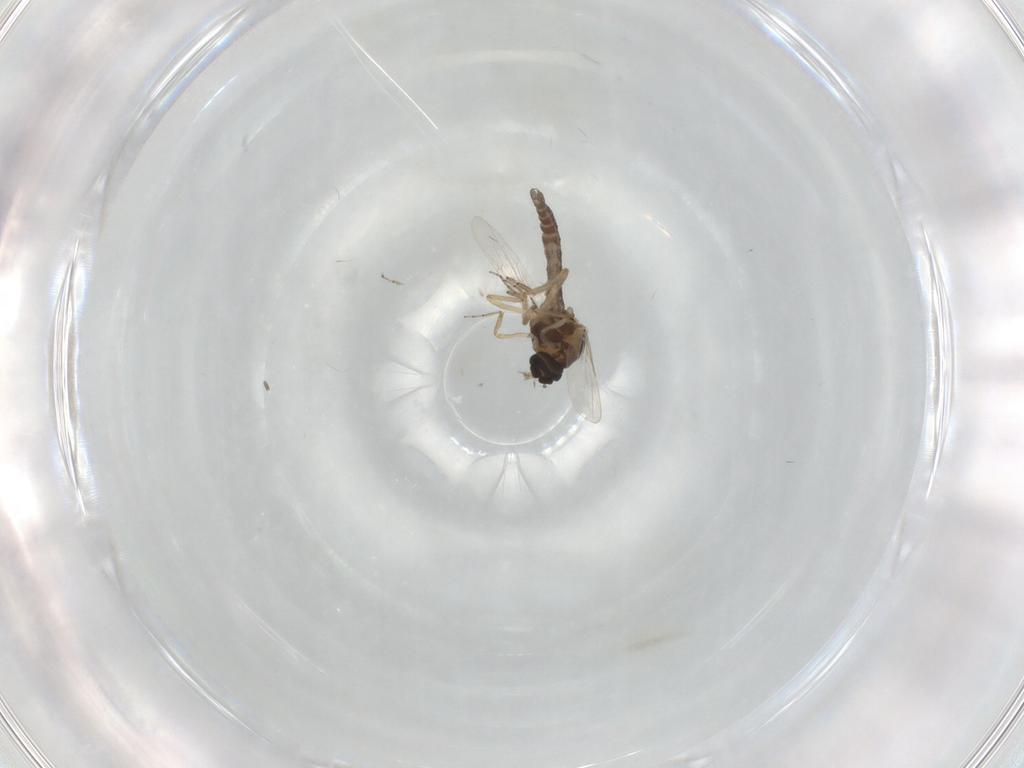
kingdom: Animalia
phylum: Arthropoda
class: Insecta
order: Diptera
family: Ceratopogonidae
